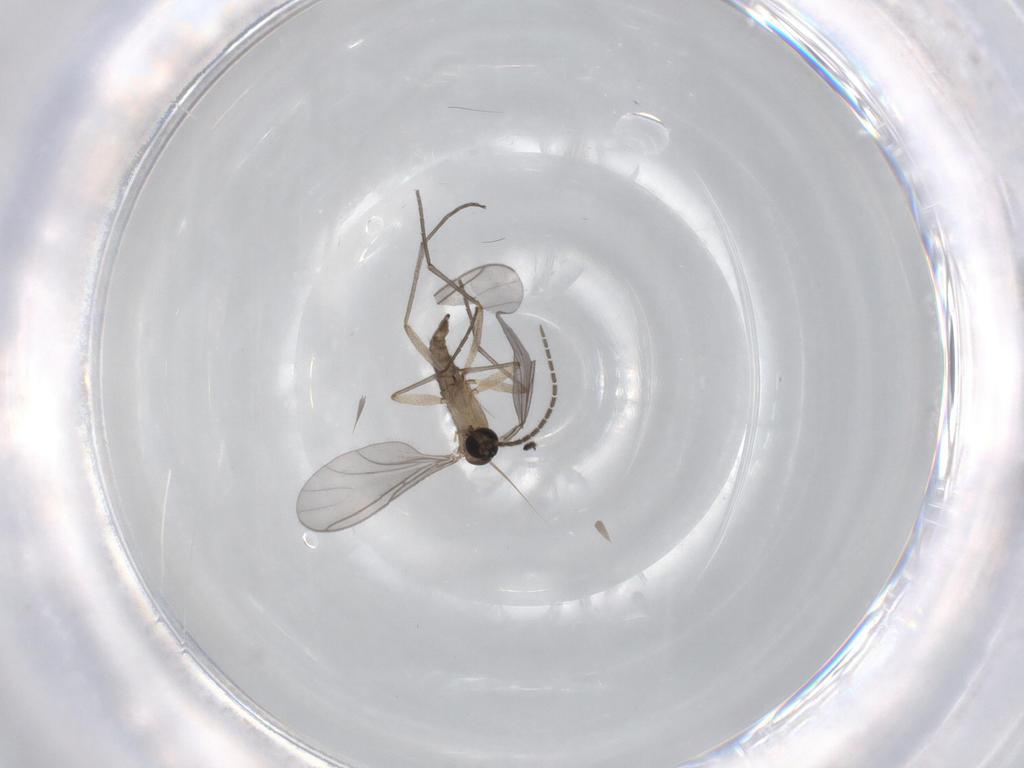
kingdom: Animalia
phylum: Arthropoda
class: Insecta
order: Diptera
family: Sciaridae
